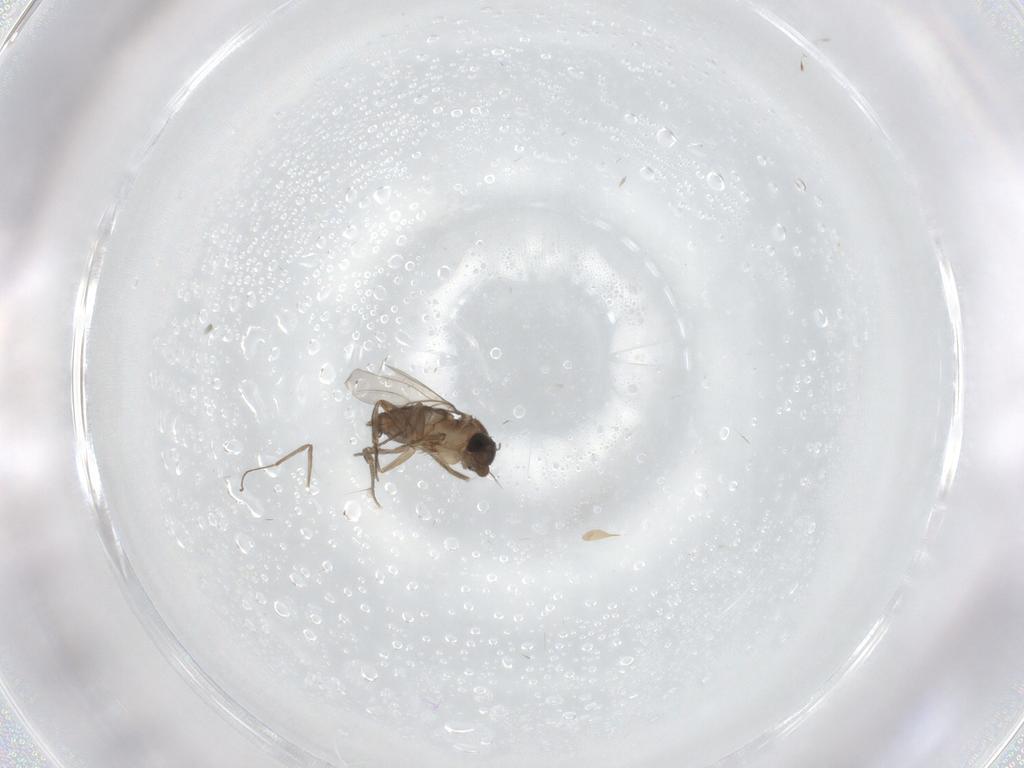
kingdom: Animalia
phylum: Arthropoda
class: Insecta
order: Diptera
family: Phoridae
